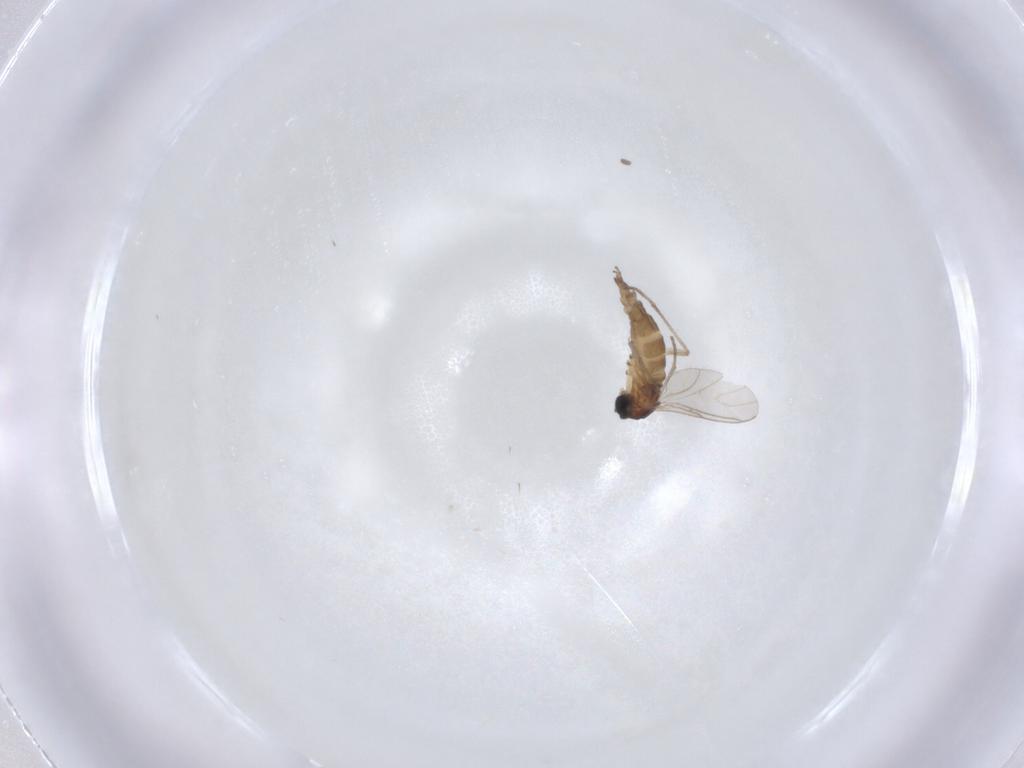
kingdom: Animalia
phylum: Arthropoda
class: Insecta
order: Diptera
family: Sciaridae
